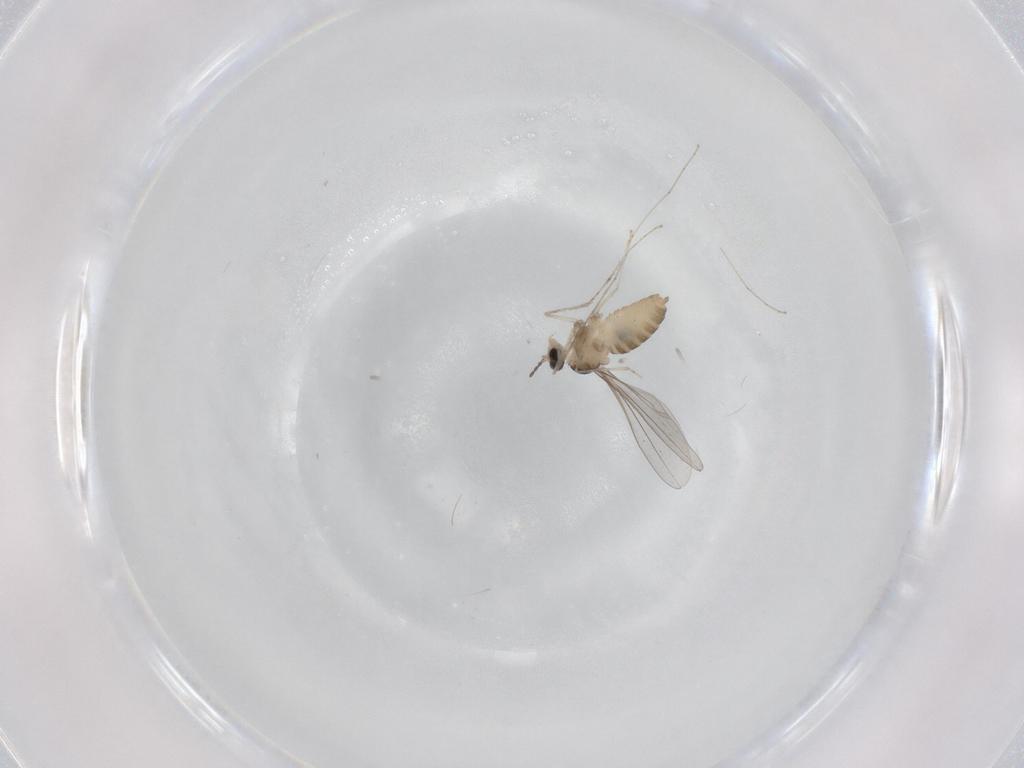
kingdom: Animalia
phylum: Arthropoda
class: Insecta
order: Diptera
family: Cecidomyiidae
